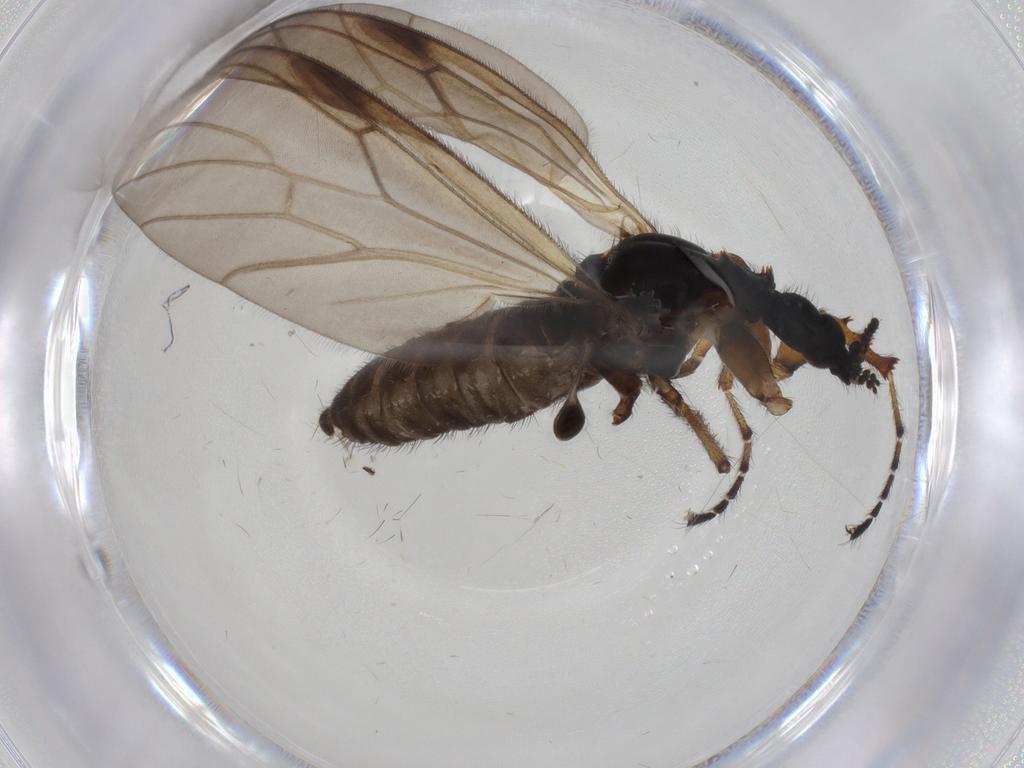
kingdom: Animalia
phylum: Arthropoda
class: Insecta
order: Diptera
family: Bibionidae
